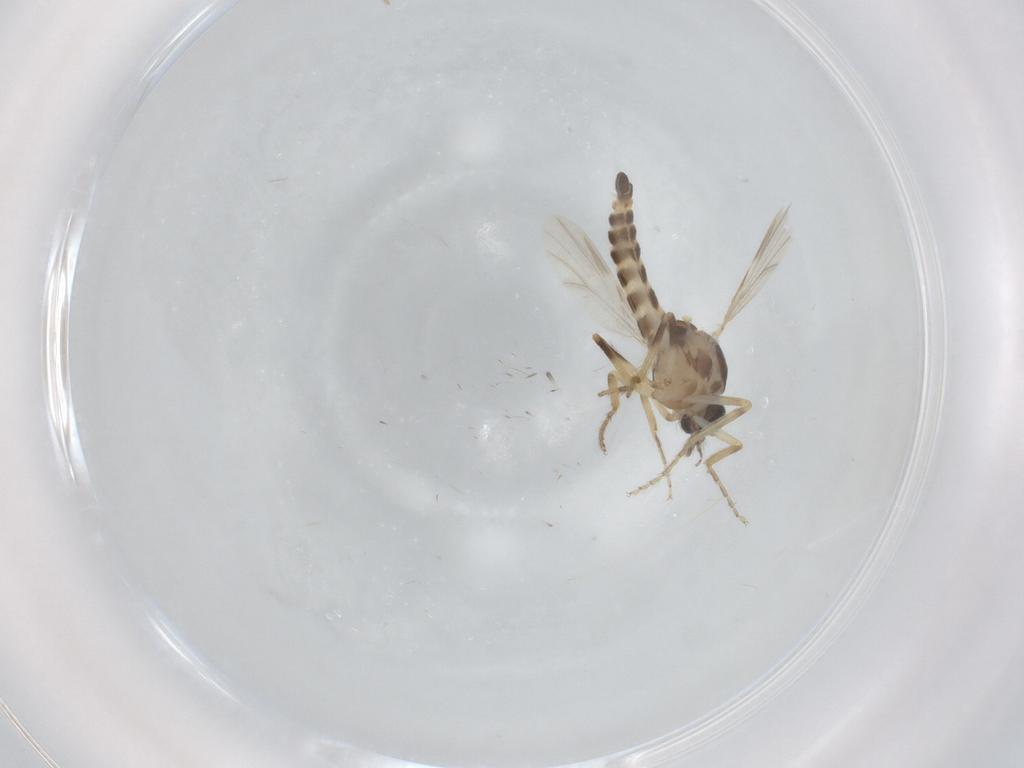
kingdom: Animalia
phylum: Arthropoda
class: Insecta
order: Diptera
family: Ceratopogonidae
